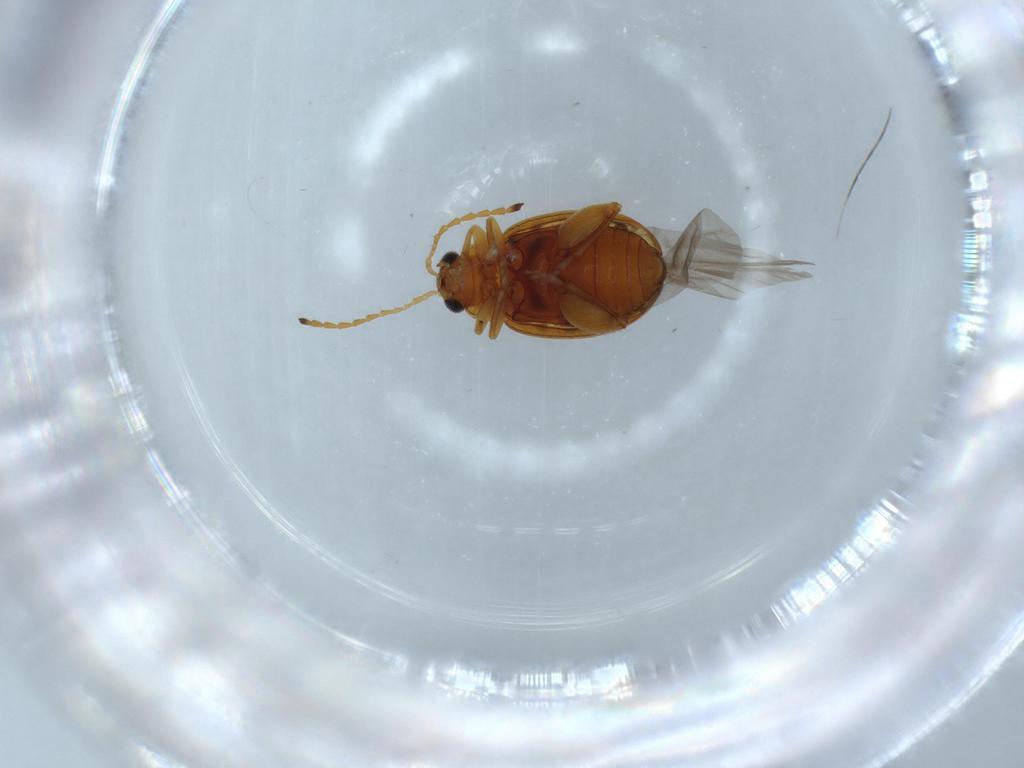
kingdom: Animalia
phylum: Arthropoda
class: Insecta
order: Coleoptera
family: Chrysomelidae
